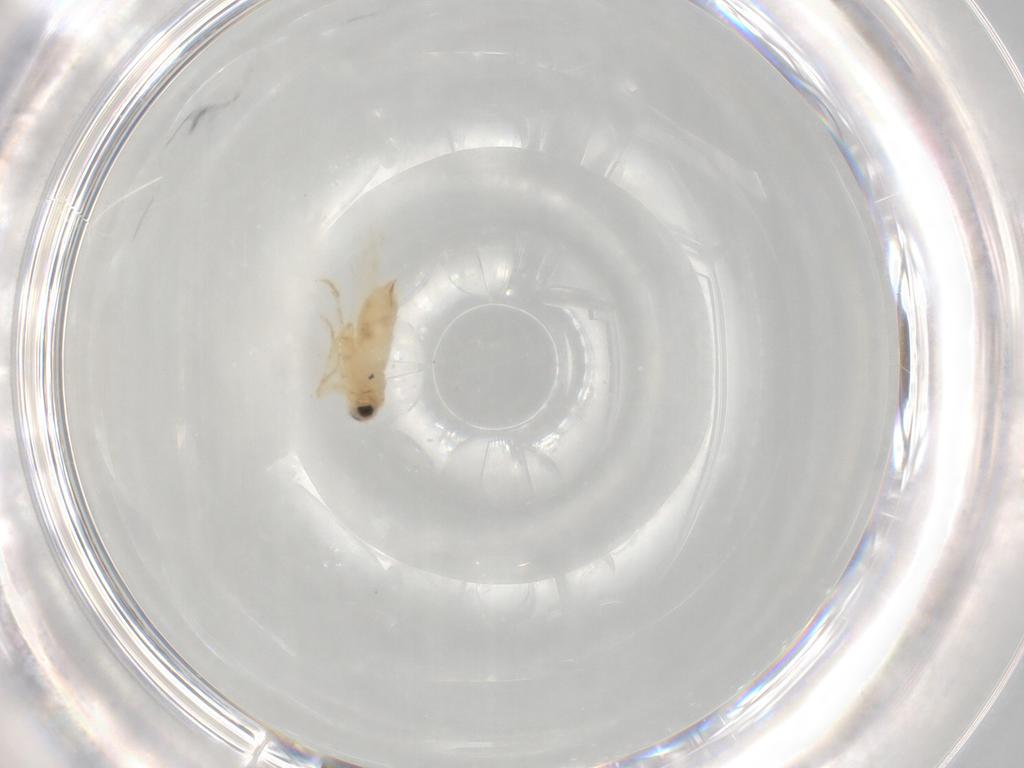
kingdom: Animalia
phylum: Arthropoda
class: Insecta
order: Lepidoptera
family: Nepticulidae
